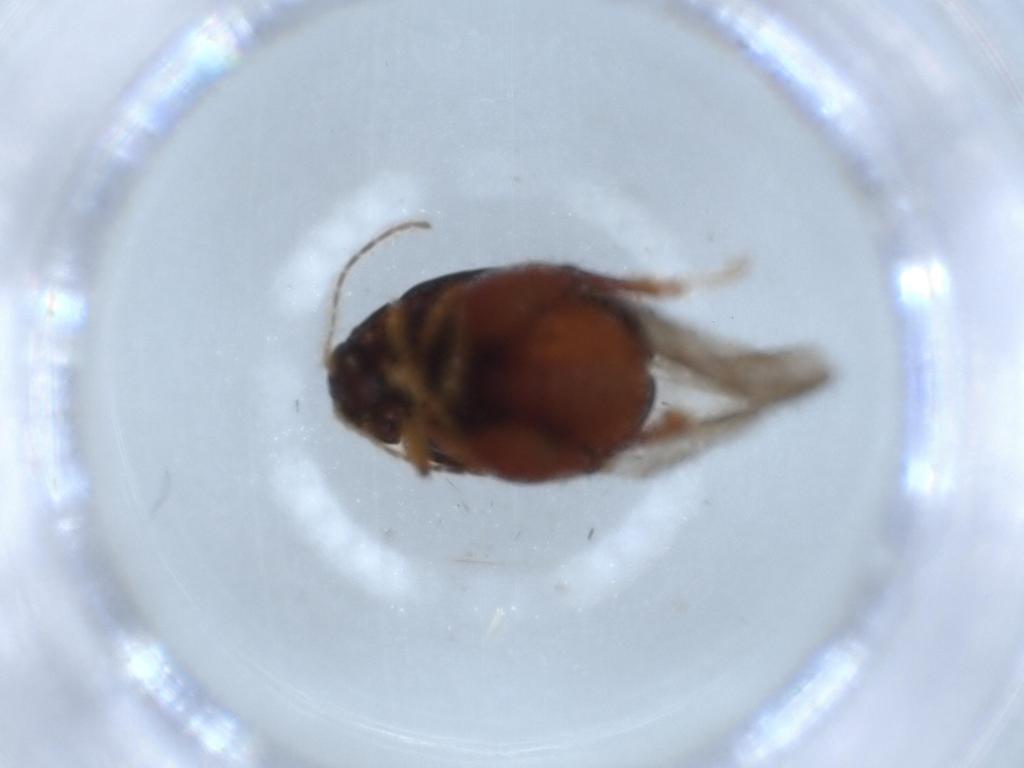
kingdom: Animalia
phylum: Arthropoda
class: Insecta
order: Coleoptera
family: Chrysomelidae
